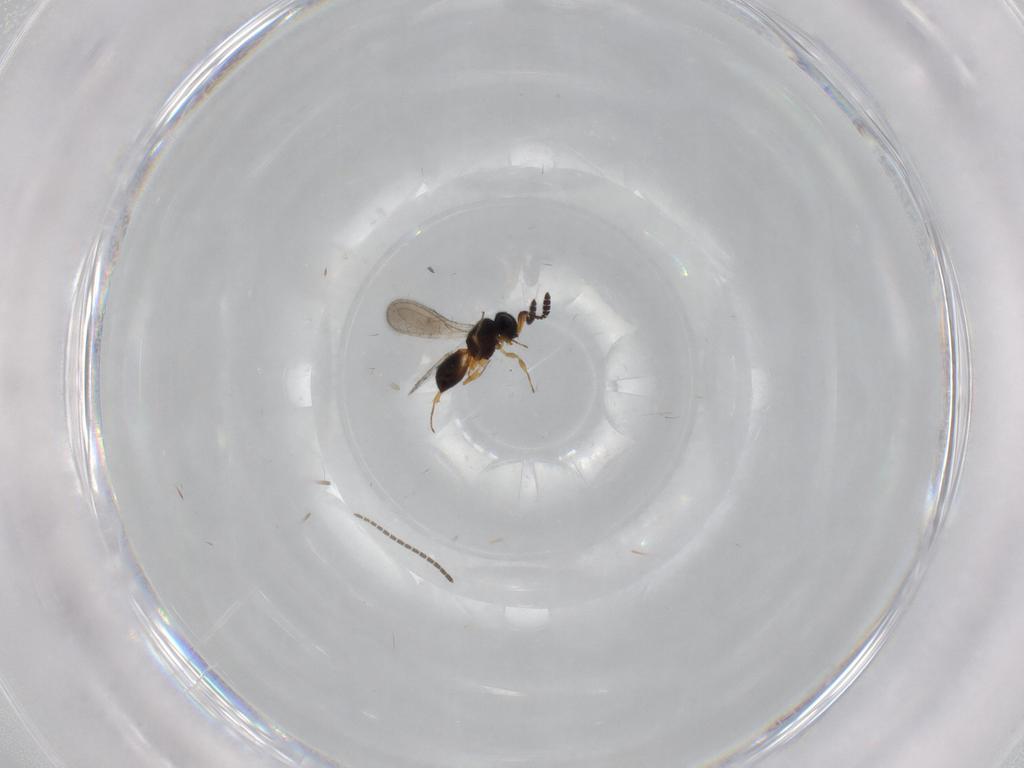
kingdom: Animalia
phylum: Arthropoda
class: Insecta
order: Hymenoptera
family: Scelionidae
